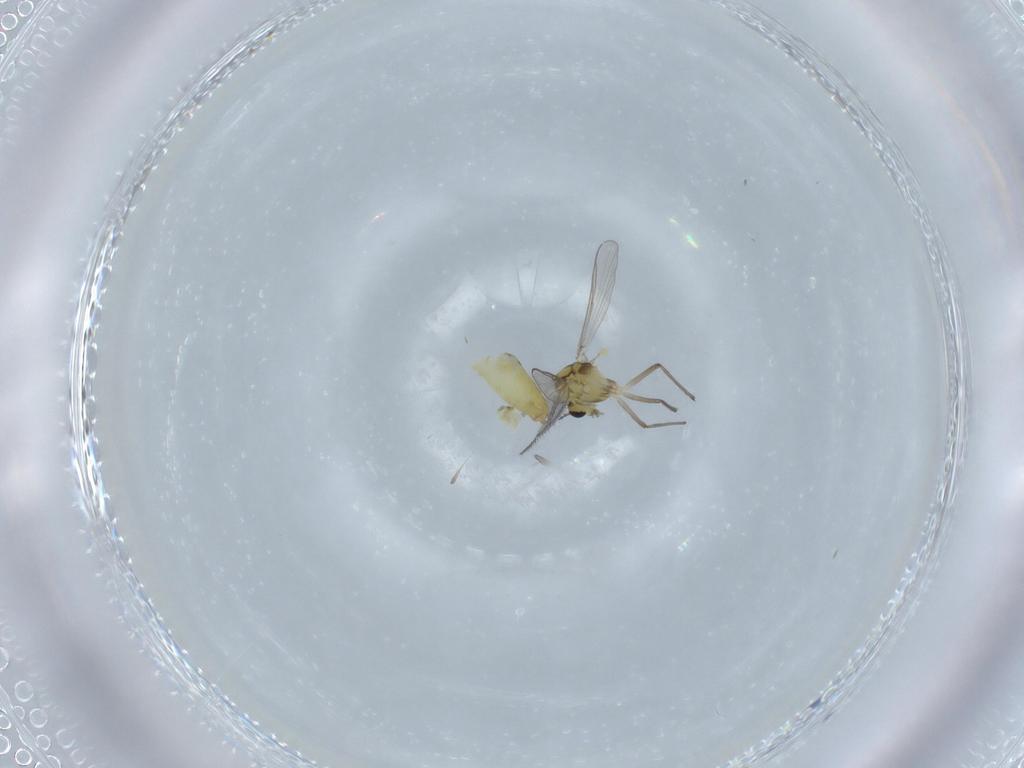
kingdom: Animalia
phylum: Arthropoda
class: Insecta
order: Diptera
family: Chironomidae
